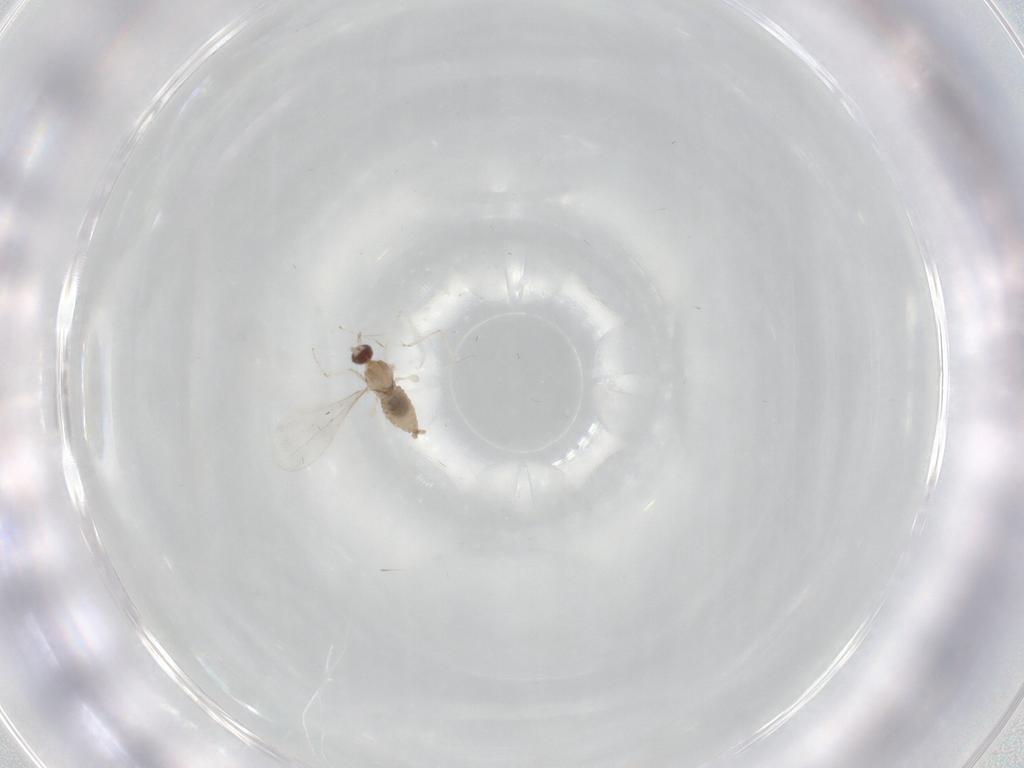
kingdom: Animalia
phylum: Arthropoda
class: Insecta
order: Diptera
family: Cecidomyiidae
